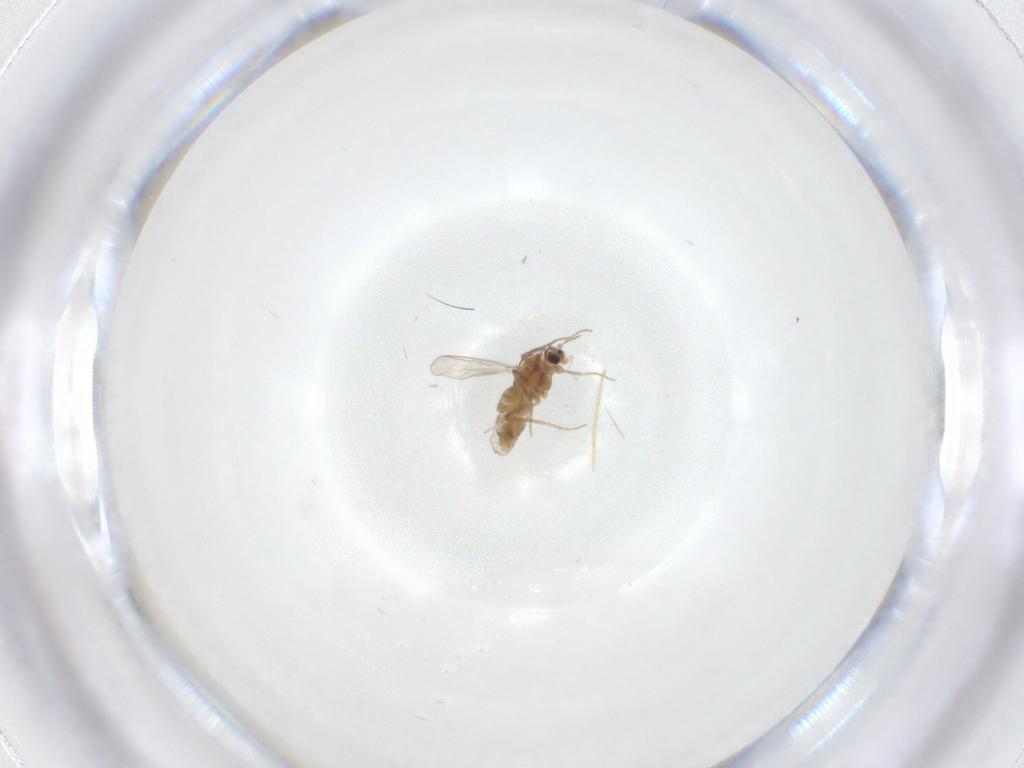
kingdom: Animalia
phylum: Arthropoda
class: Insecta
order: Diptera
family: Chironomidae
